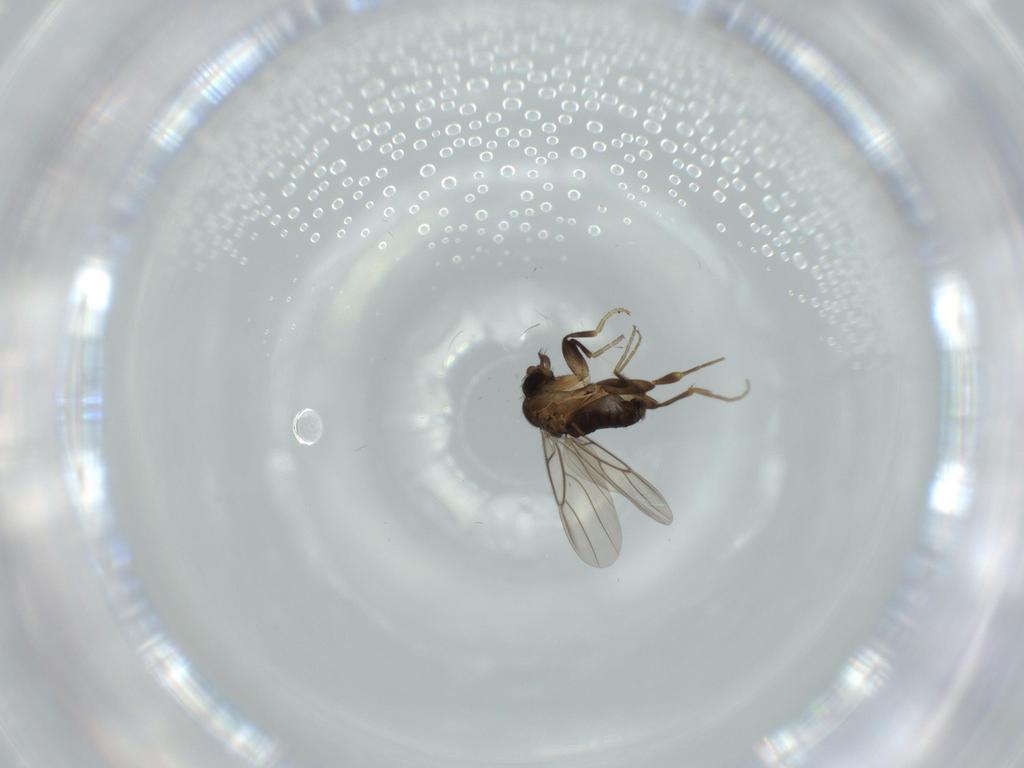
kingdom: Animalia
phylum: Arthropoda
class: Insecta
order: Diptera
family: Phoridae
